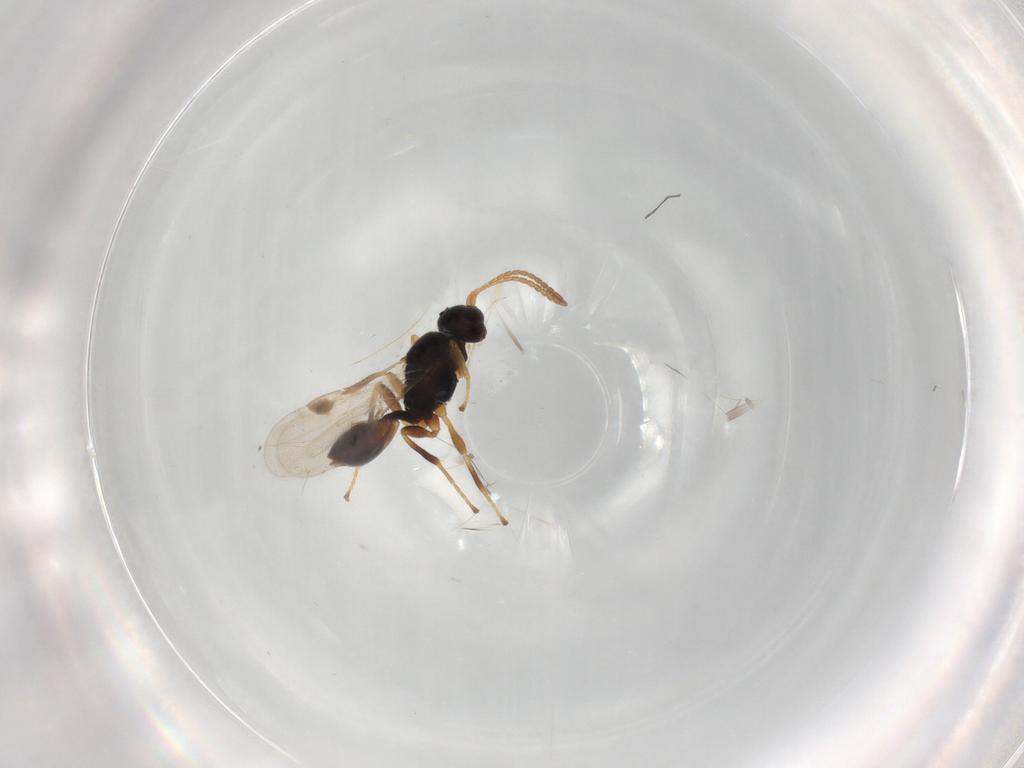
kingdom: Animalia
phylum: Arthropoda
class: Insecta
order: Hymenoptera
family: Braconidae
